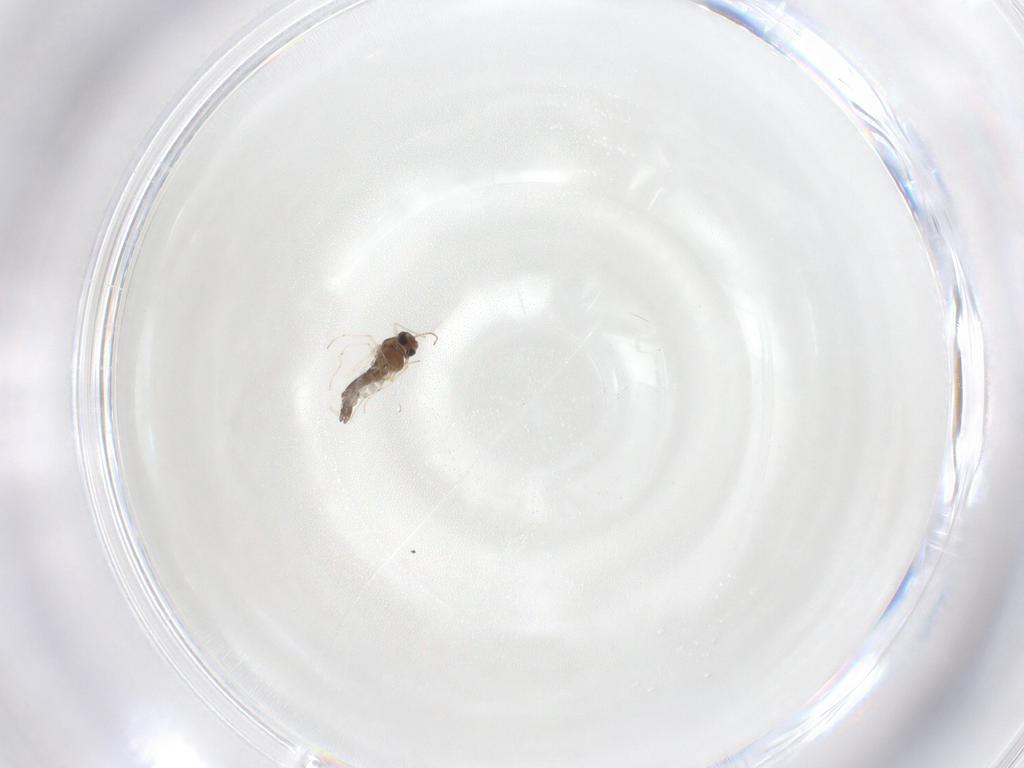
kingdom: Animalia
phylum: Arthropoda
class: Insecta
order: Diptera
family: Chironomidae
